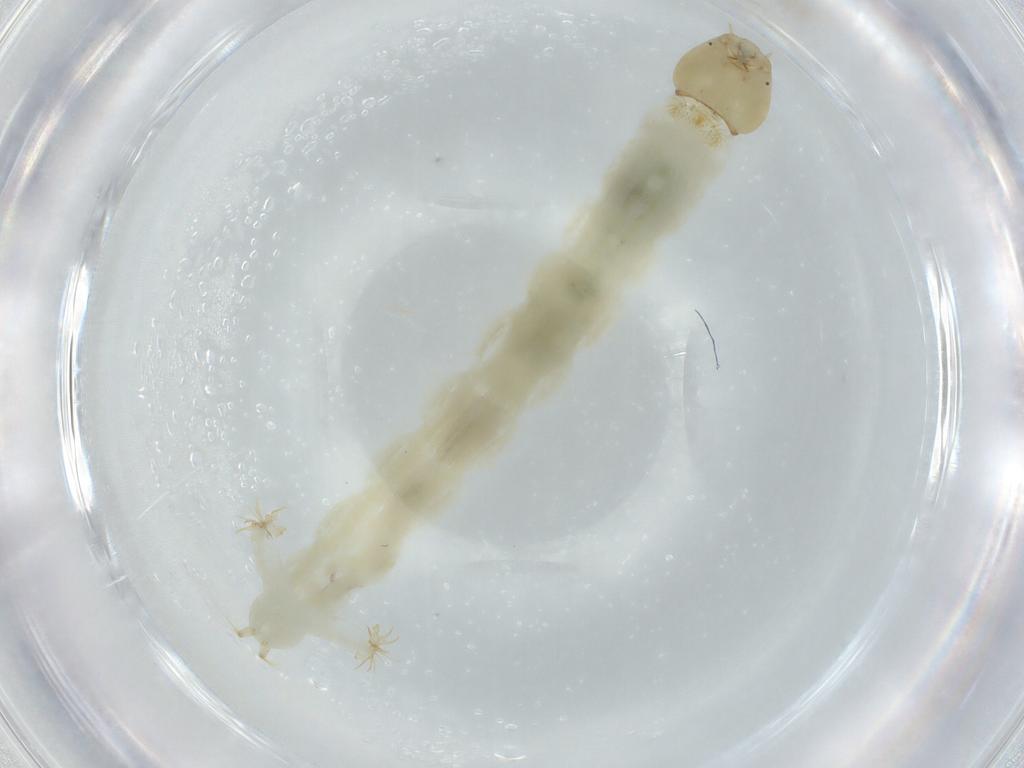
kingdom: Animalia
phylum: Arthropoda
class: Insecta
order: Diptera
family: Chironomidae
